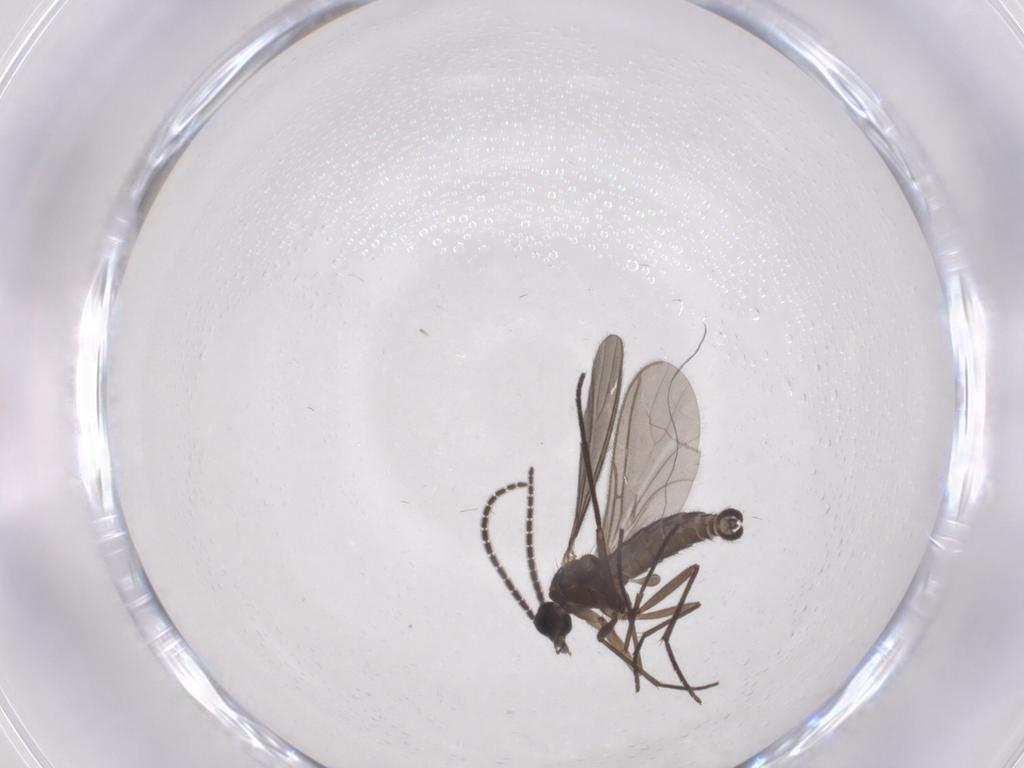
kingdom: Animalia
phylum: Arthropoda
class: Insecta
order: Diptera
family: Sciaridae
